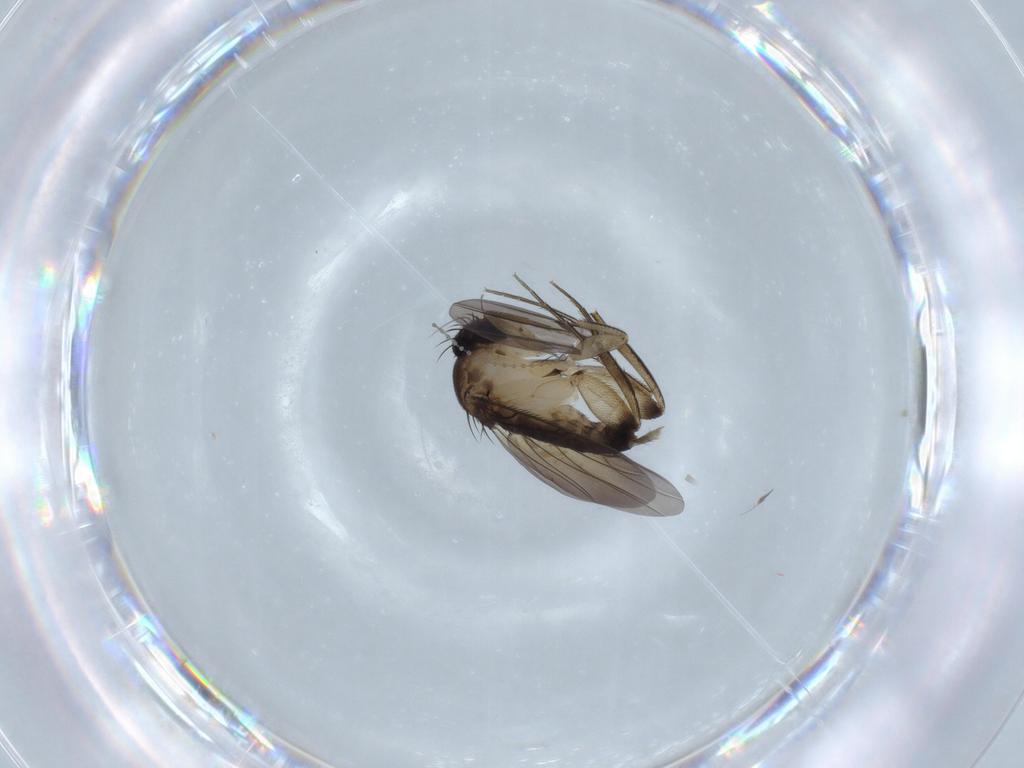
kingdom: Animalia
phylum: Arthropoda
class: Insecta
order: Diptera
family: Cecidomyiidae
